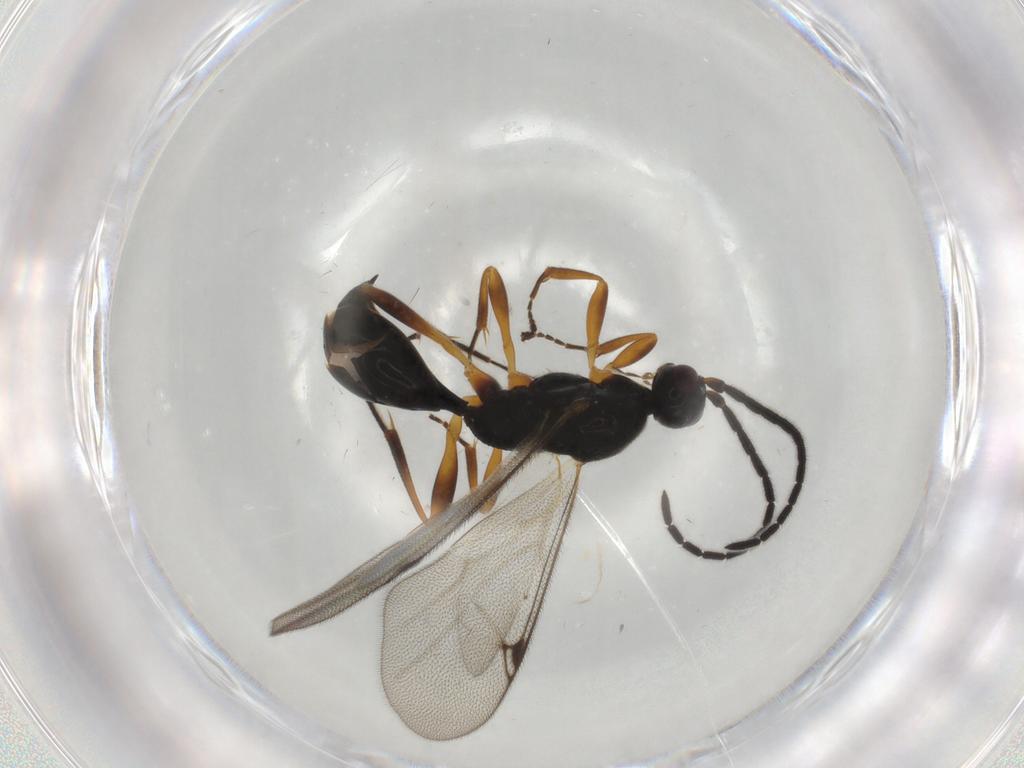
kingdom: Animalia
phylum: Arthropoda
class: Insecta
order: Hymenoptera
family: Proctotrupidae
